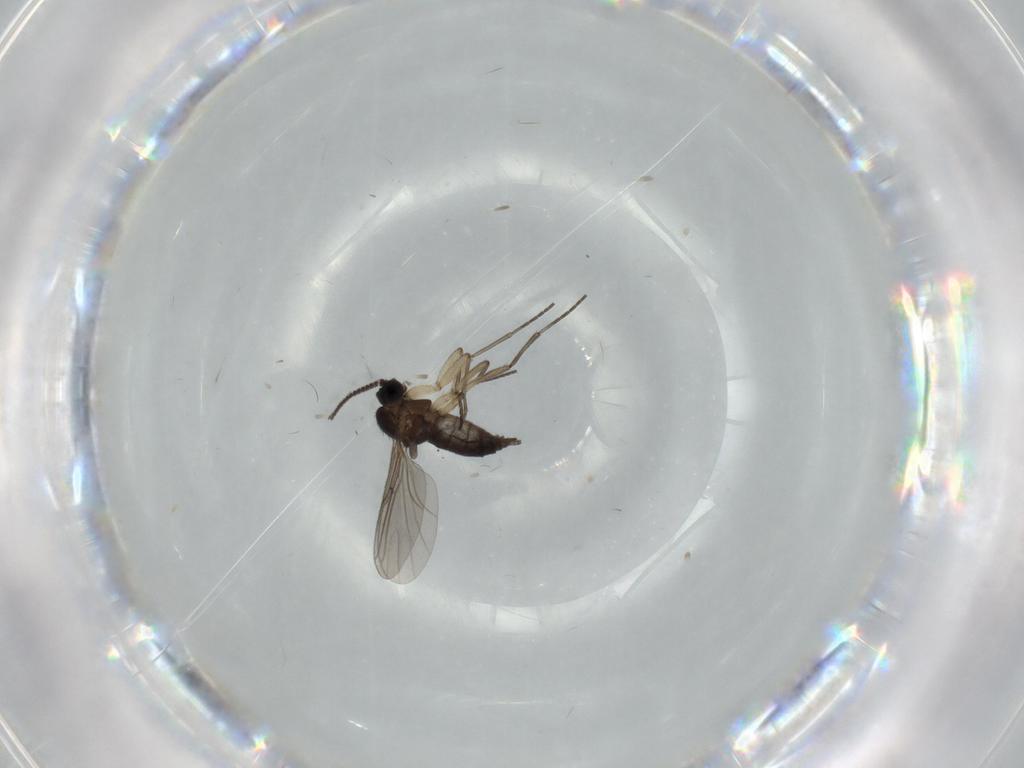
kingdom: Animalia
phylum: Arthropoda
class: Insecta
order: Diptera
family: Sciaridae
